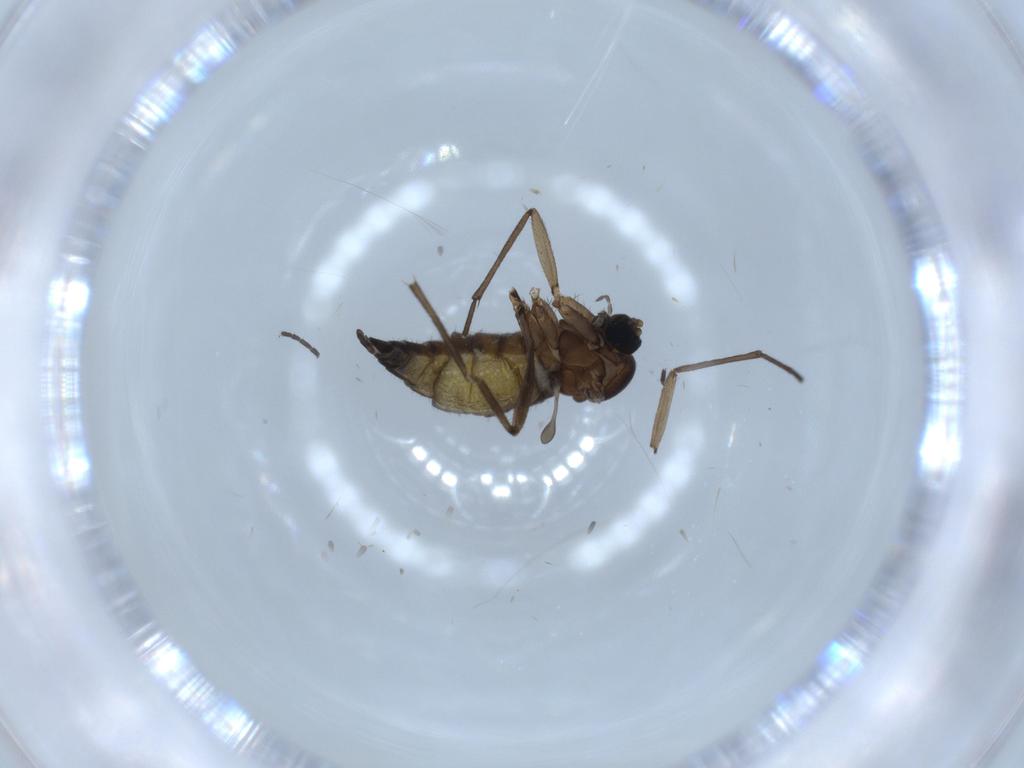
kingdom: Animalia
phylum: Arthropoda
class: Insecta
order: Diptera
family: Sciaridae
